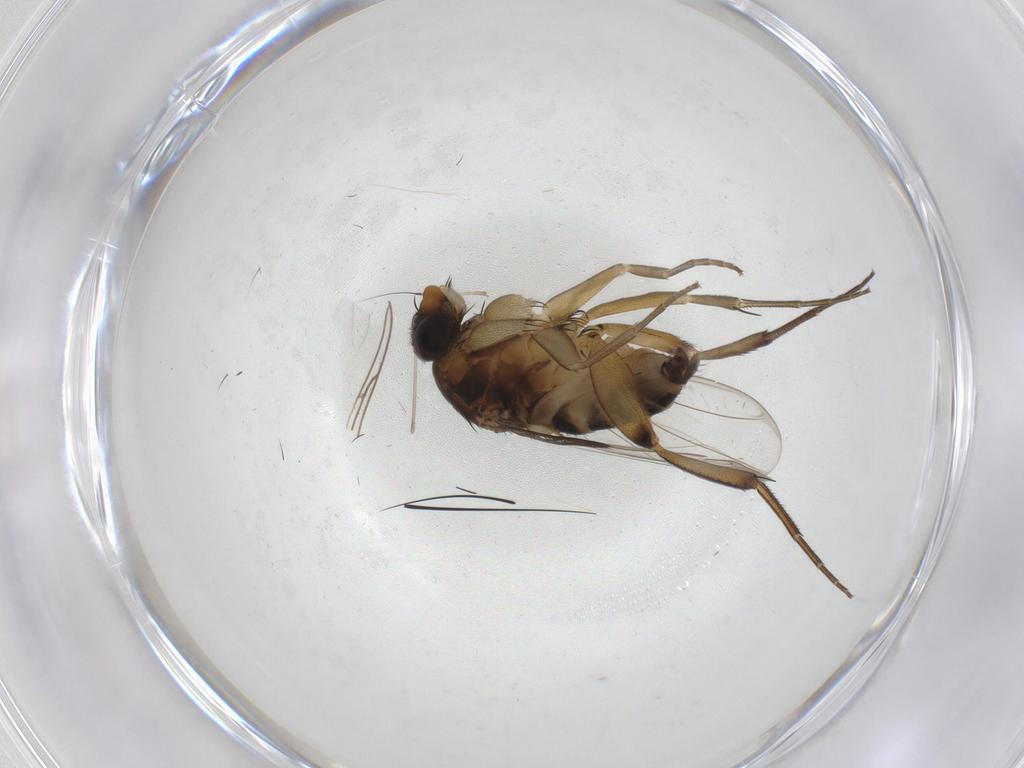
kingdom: Animalia
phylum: Arthropoda
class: Insecta
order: Diptera
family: Phoridae
